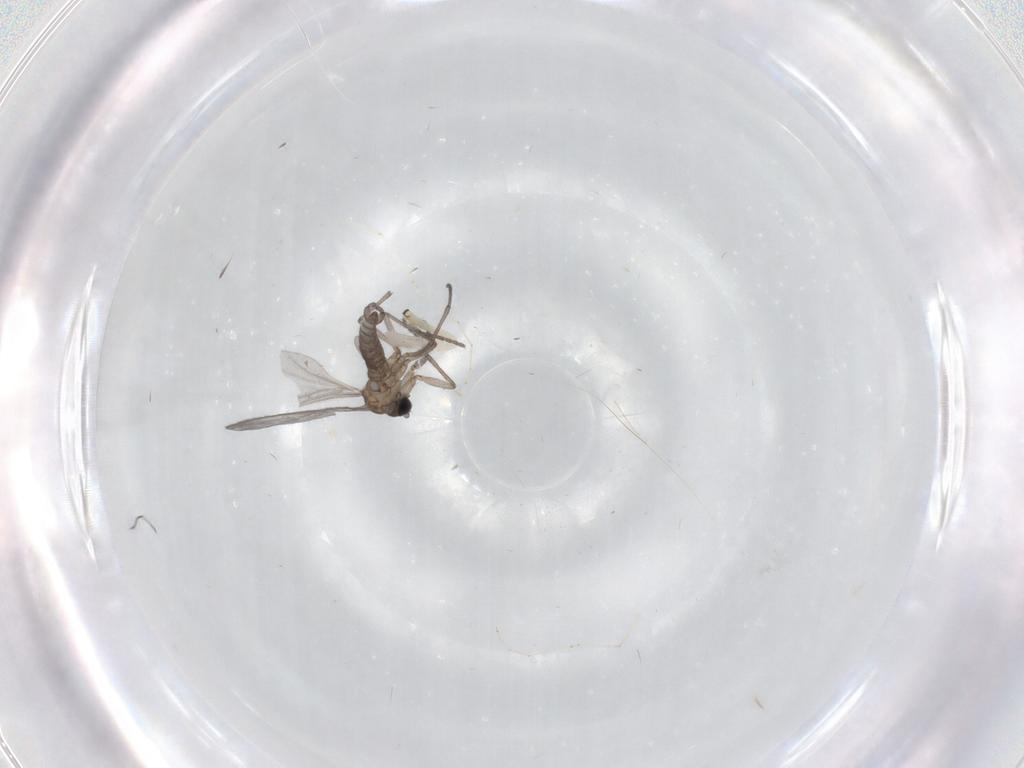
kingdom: Animalia
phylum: Arthropoda
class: Insecta
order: Diptera
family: Sciaridae
